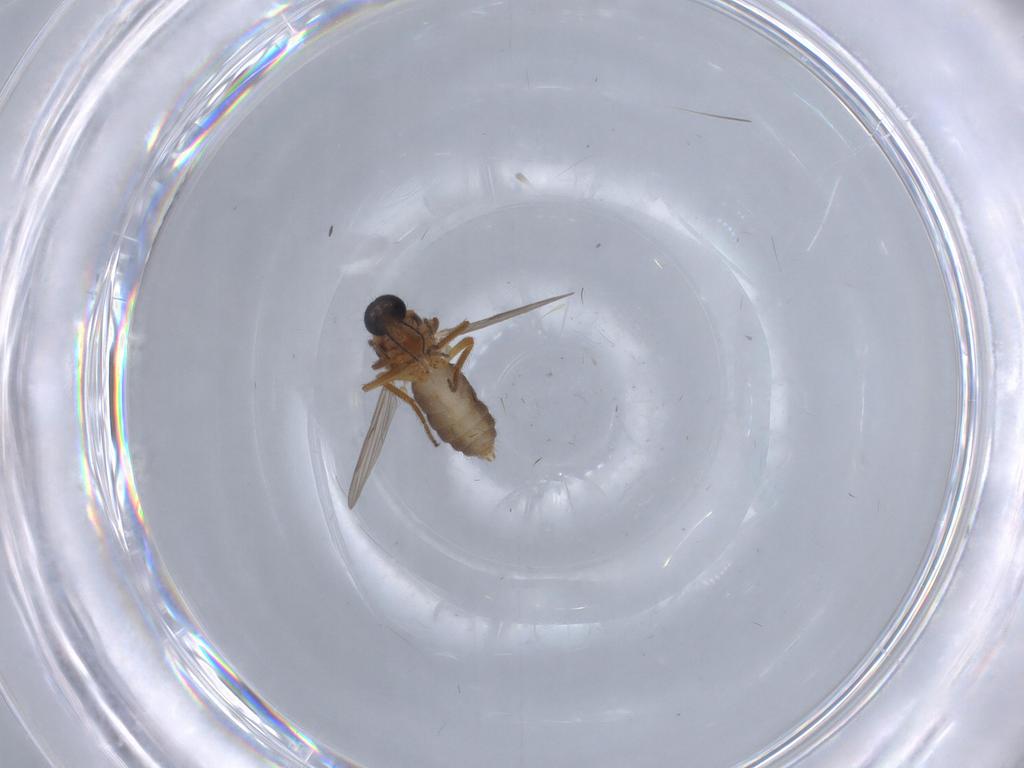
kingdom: Animalia
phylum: Arthropoda
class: Insecta
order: Diptera
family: Ceratopogonidae
